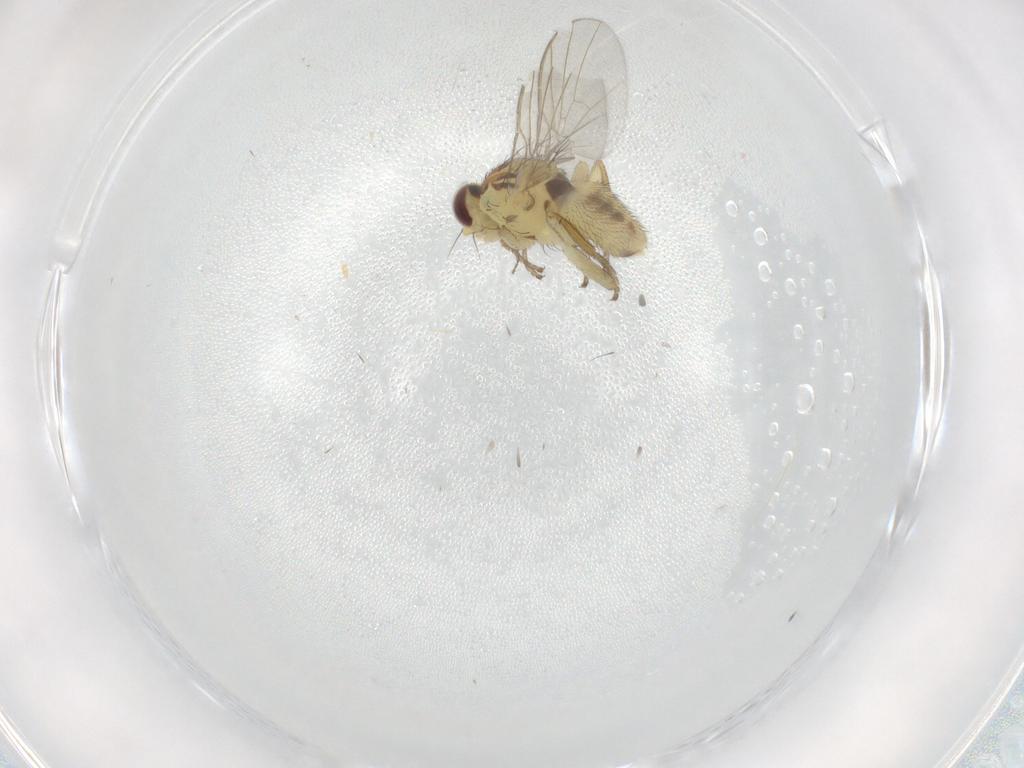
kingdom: Animalia
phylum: Arthropoda
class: Insecta
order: Diptera
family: Agromyzidae
